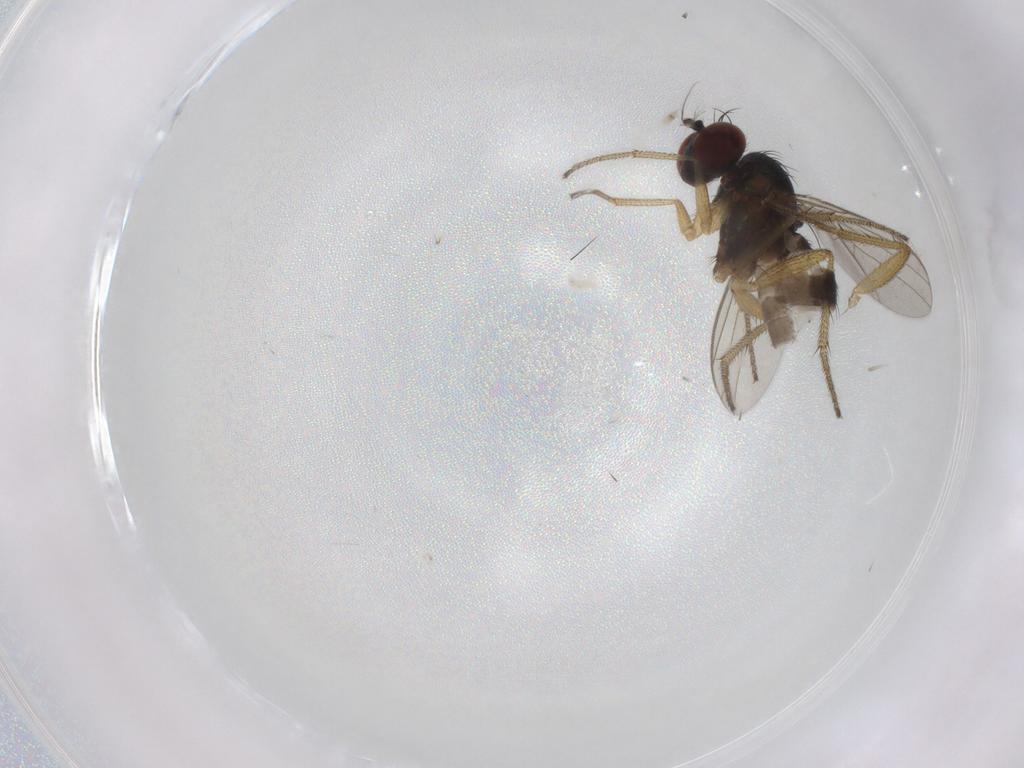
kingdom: Animalia
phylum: Arthropoda
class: Insecta
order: Diptera
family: Cecidomyiidae
